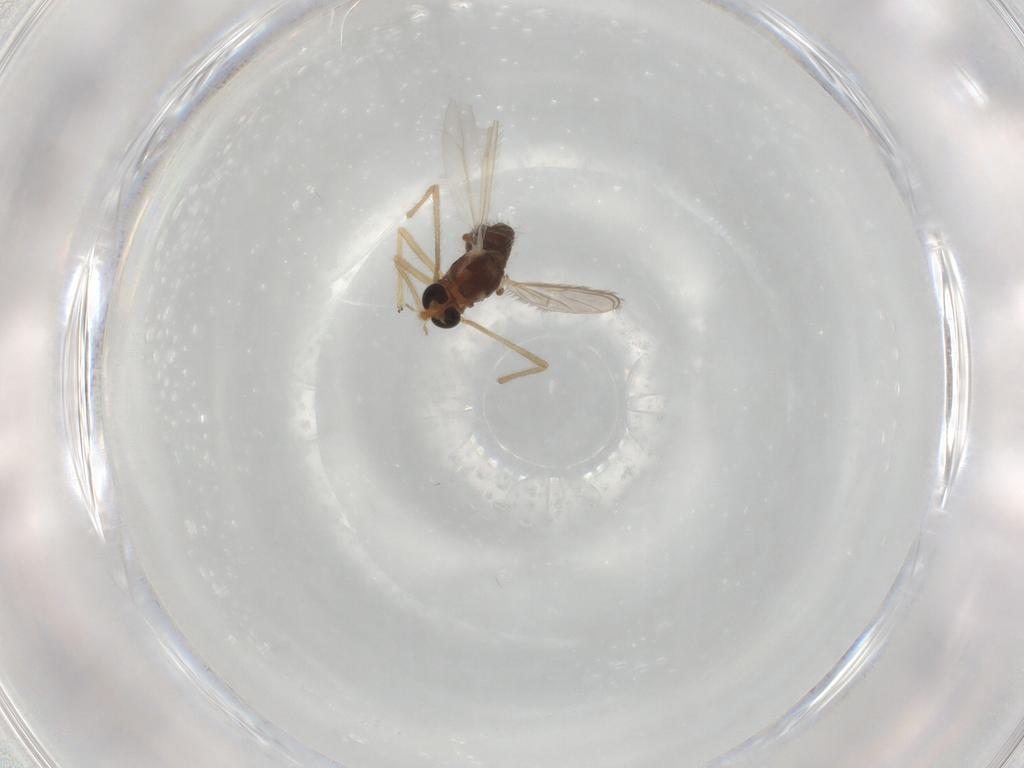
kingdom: Animalia
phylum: Arthropoda
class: Insecta
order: Diptera
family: Chironomidae
